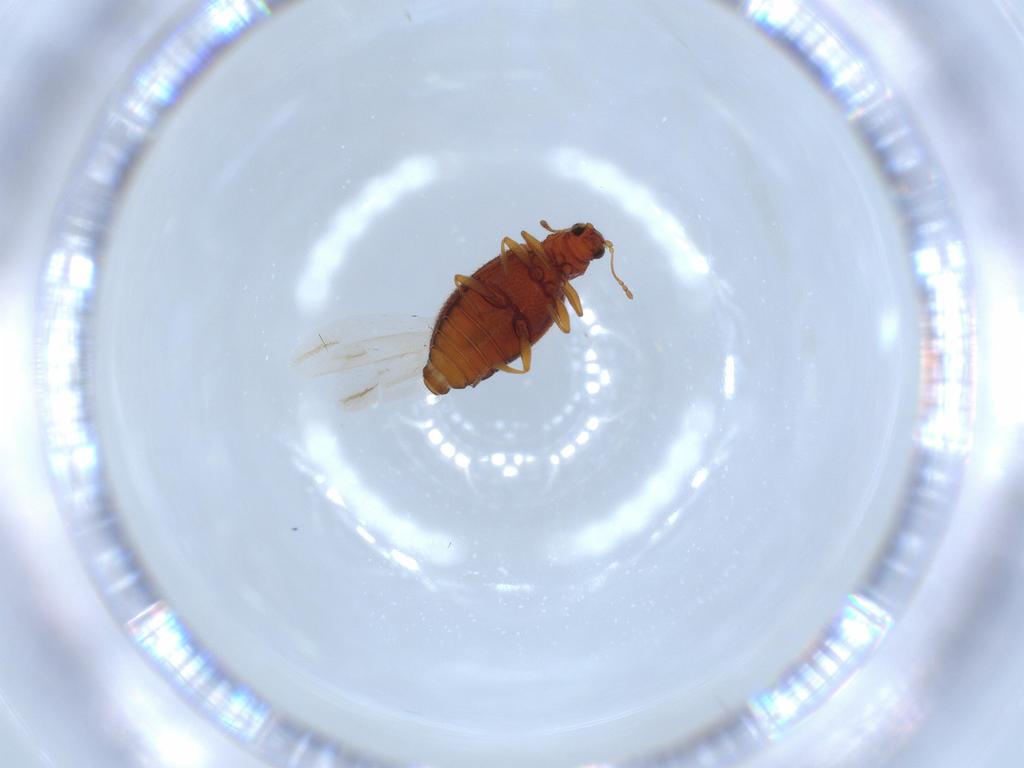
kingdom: Animalia
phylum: Arthropoda
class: Insecta
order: Coleoptera
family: Latridiidae
